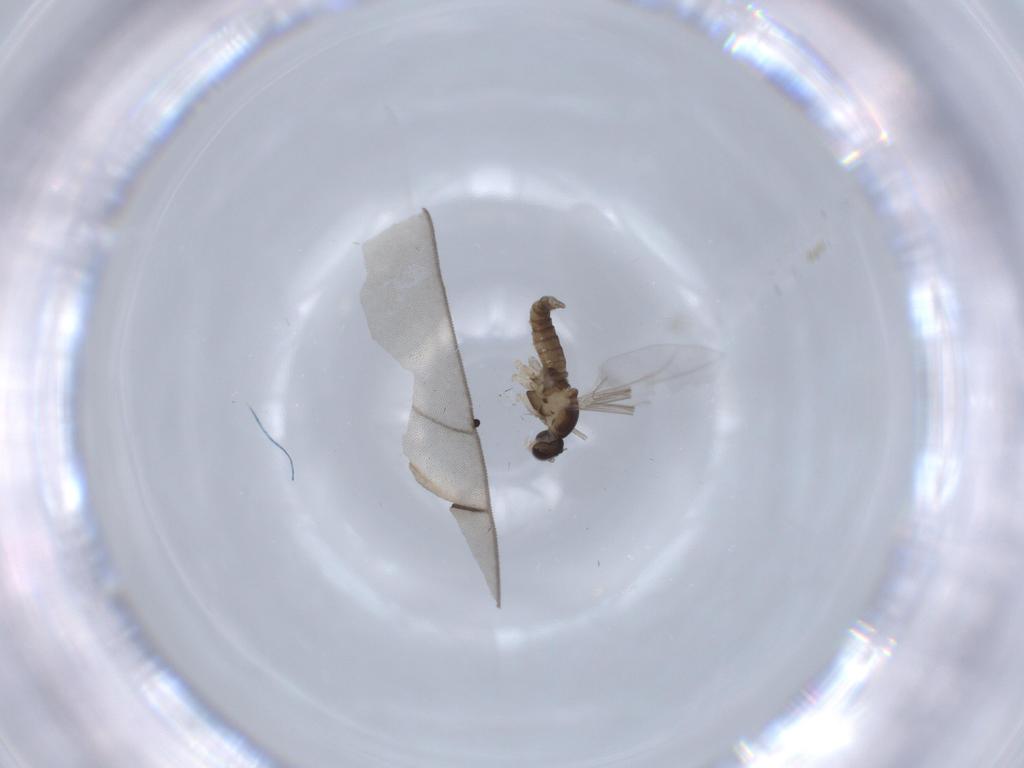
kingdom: Animalia
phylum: Arthropoda
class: Insecta
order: Diptera
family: Cecidomyiidae
